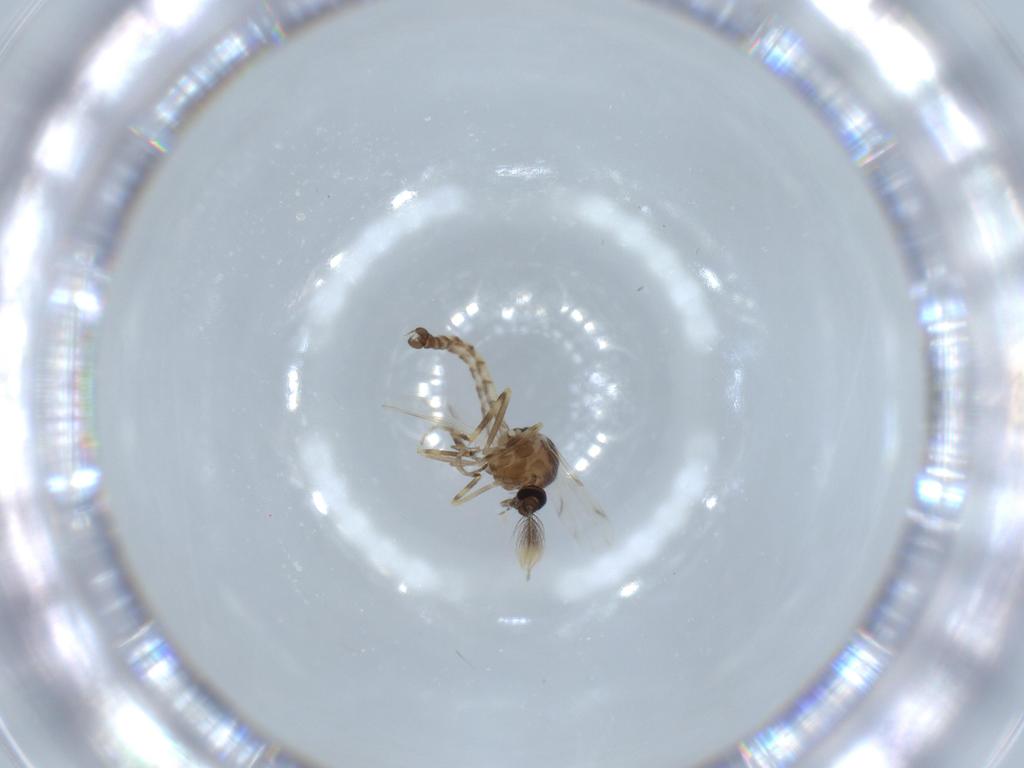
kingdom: Animalia
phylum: Arthropoda
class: Insecta
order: Diptera
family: Ceratopogonidae
